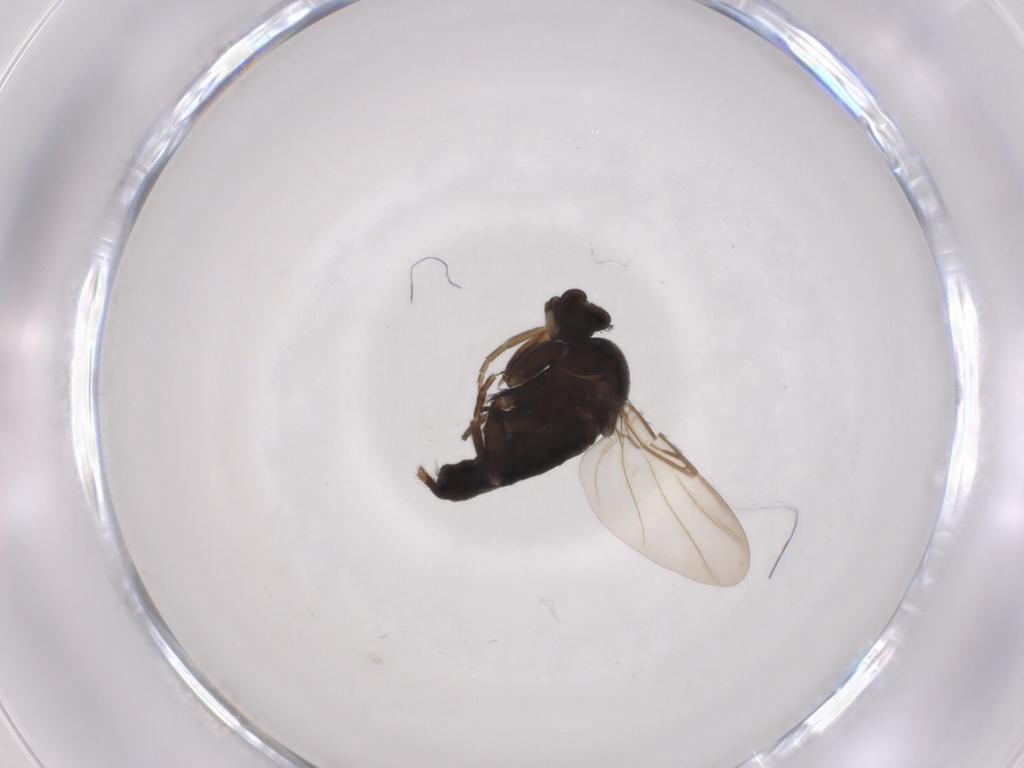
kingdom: Animalia
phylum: Arthropoda
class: Insecta
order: Diptera
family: Phoridae
